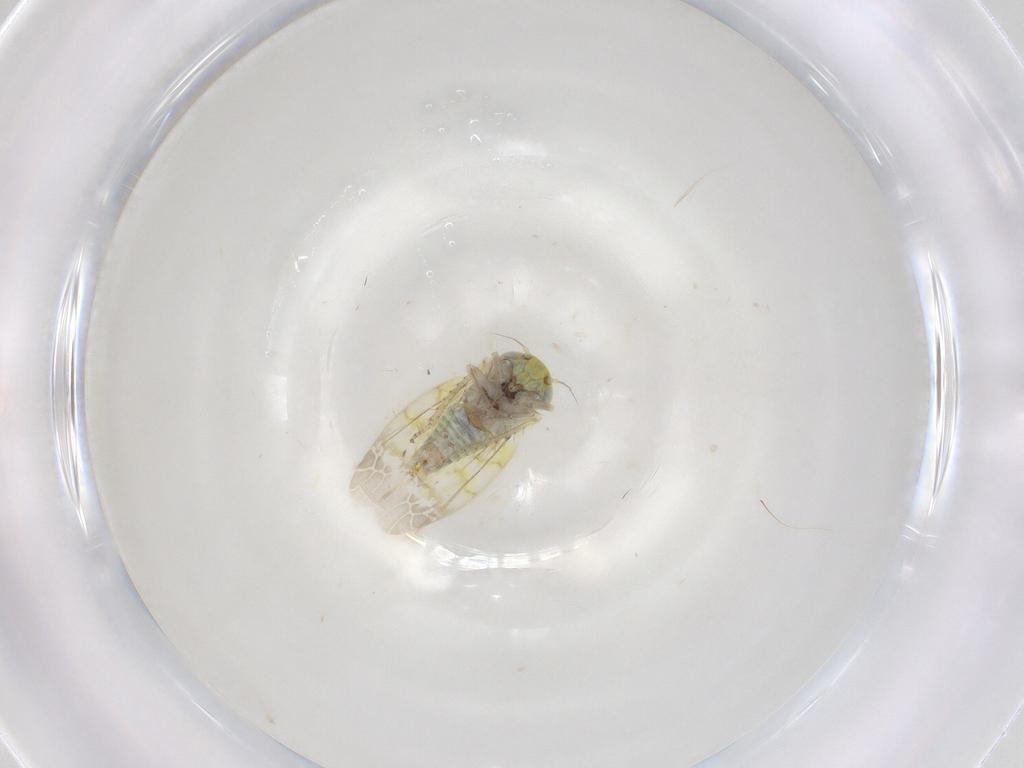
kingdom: Animalia
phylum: Arthropoda
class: Insecta
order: Hemiptera
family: Cicadellidae
